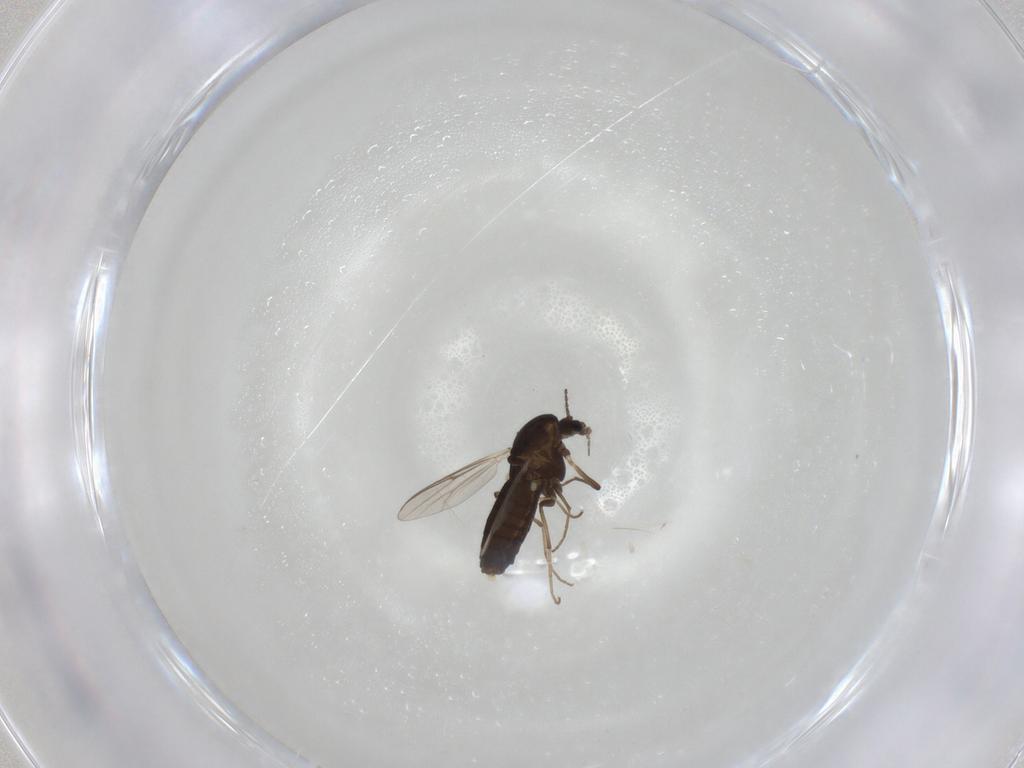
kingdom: Animalia
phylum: Arthropoda
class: Insecta
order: Diptera
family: Chironomidae
